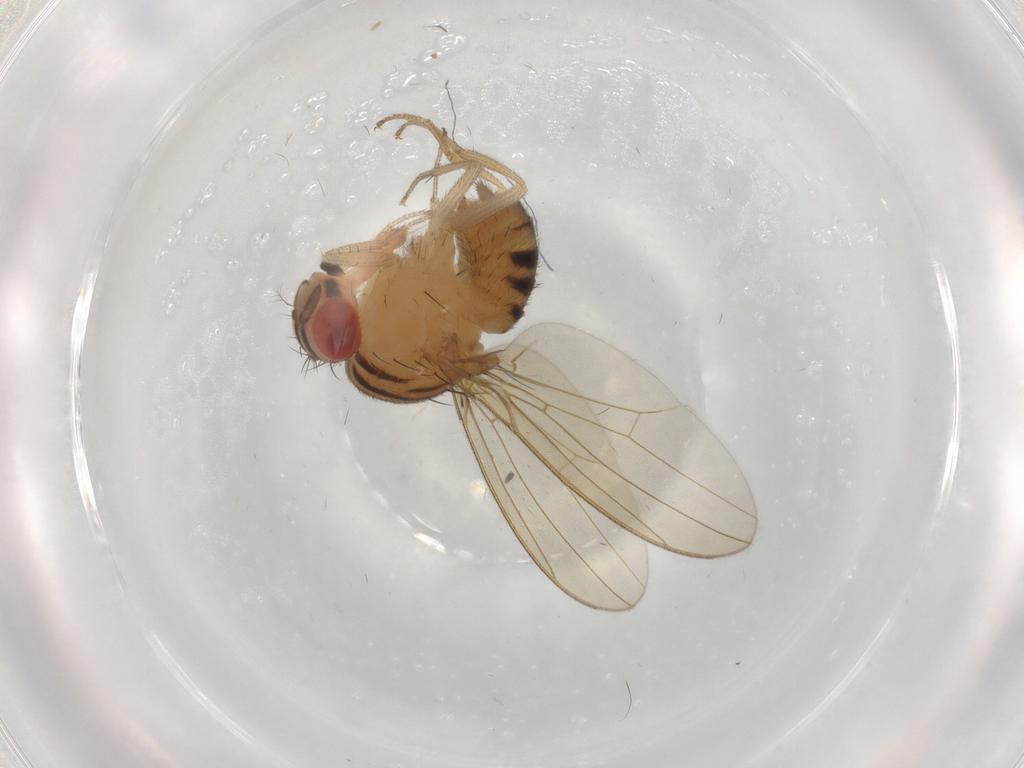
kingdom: Animalia
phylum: Arthropoda
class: Insecta
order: Diptera
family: Drosophilidae
